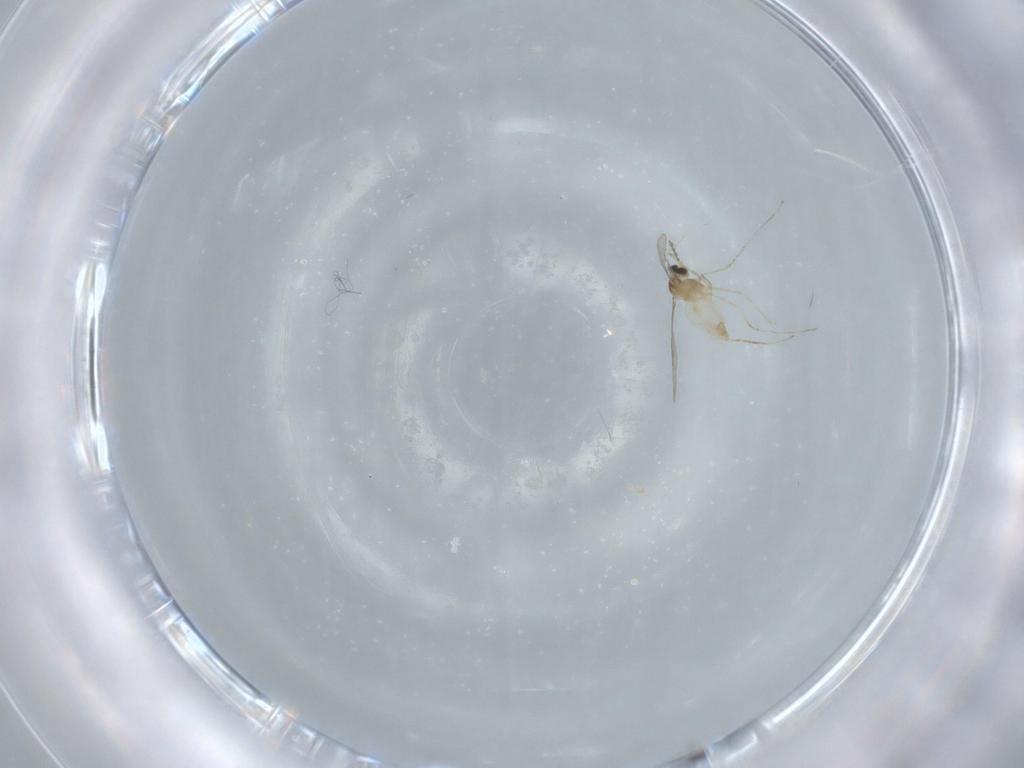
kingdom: Animalia
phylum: Arthropoda
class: Insecta
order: Diptera
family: Cecidomyiidae
